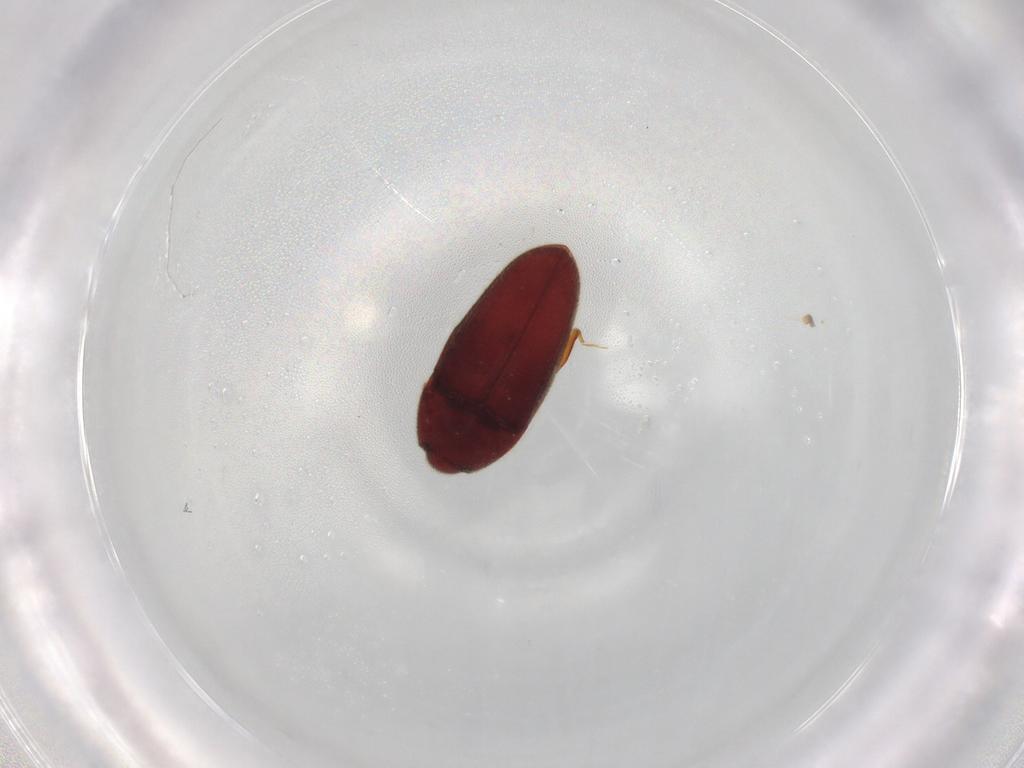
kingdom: Animalia
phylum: Arthropoda
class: Insecta
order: Coleoptera
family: Throscidae
